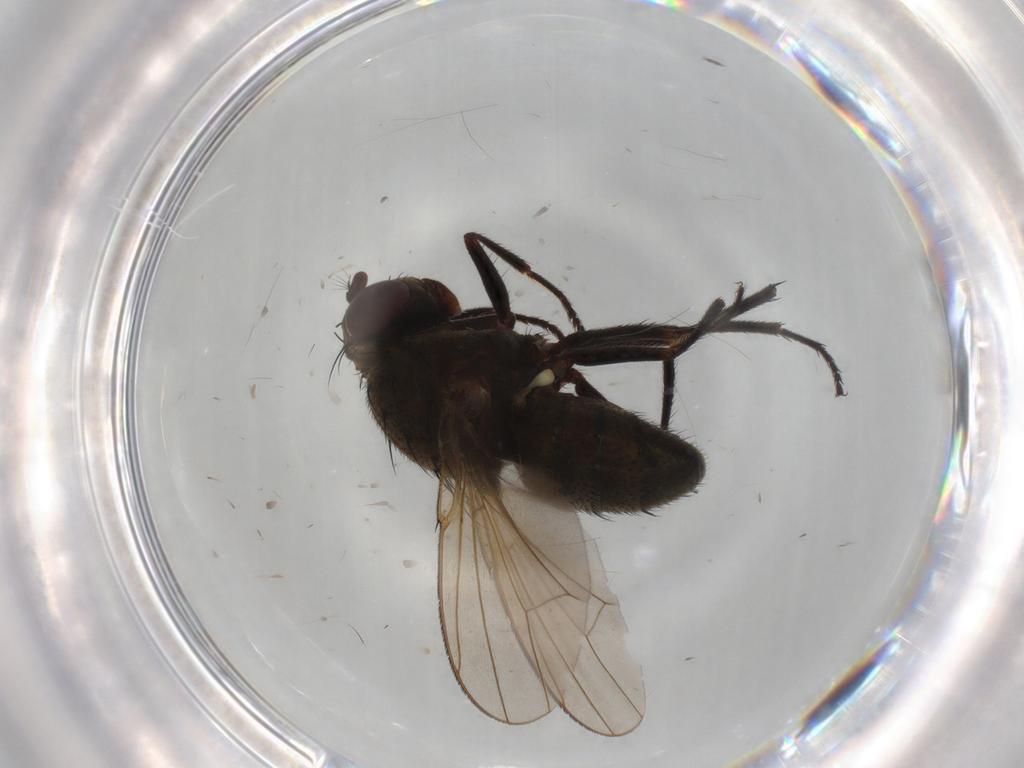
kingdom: Animalia
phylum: Arthropoda
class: Insecta
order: Diptera
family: Ephydridae
